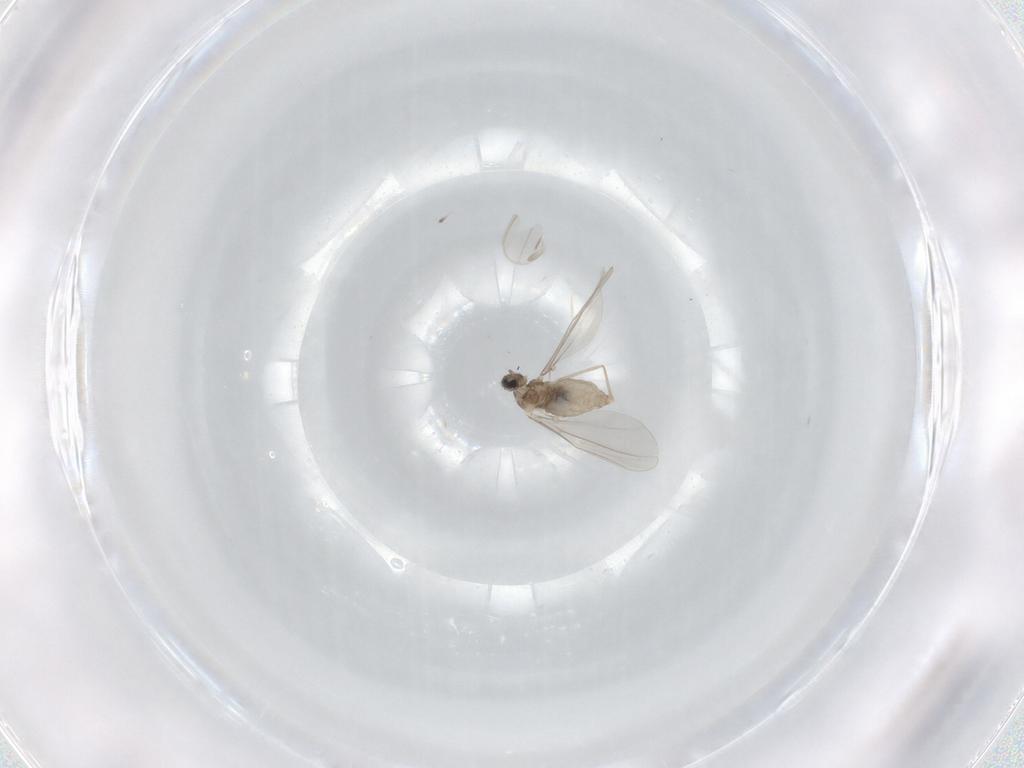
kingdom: Animalia
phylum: Arthropoda
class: Insecta
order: Diptera
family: Cecidomyiidae
